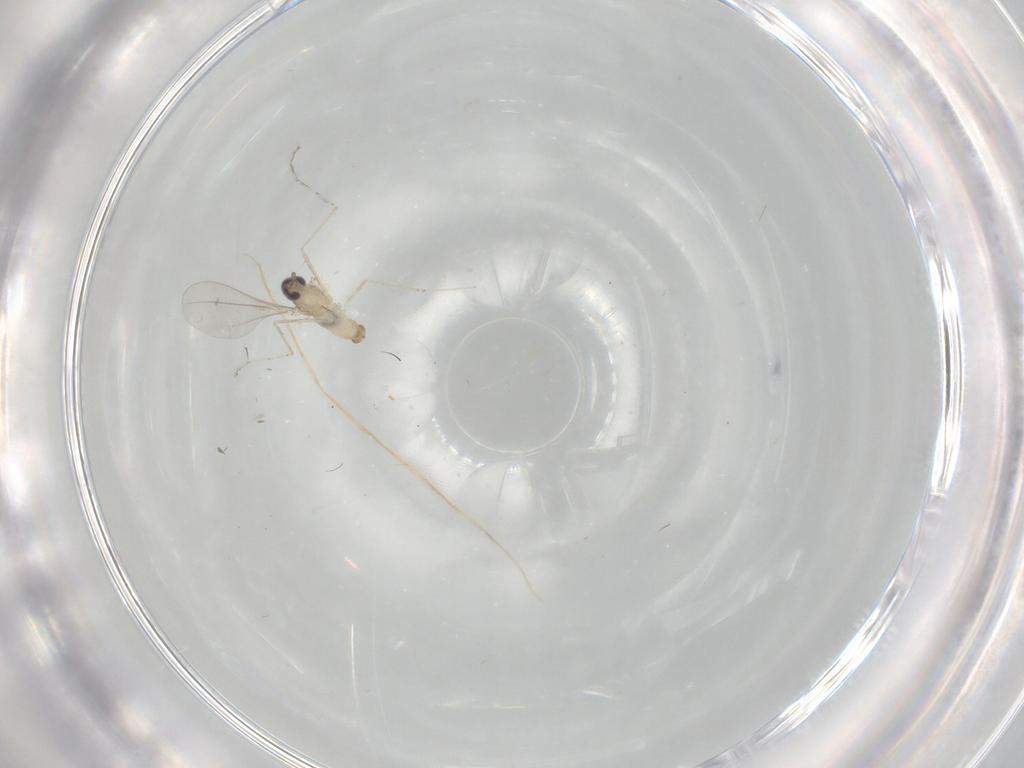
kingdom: Animalia
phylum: Arthropoda
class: Insecta
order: Diptera
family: Cecidomyiidae
